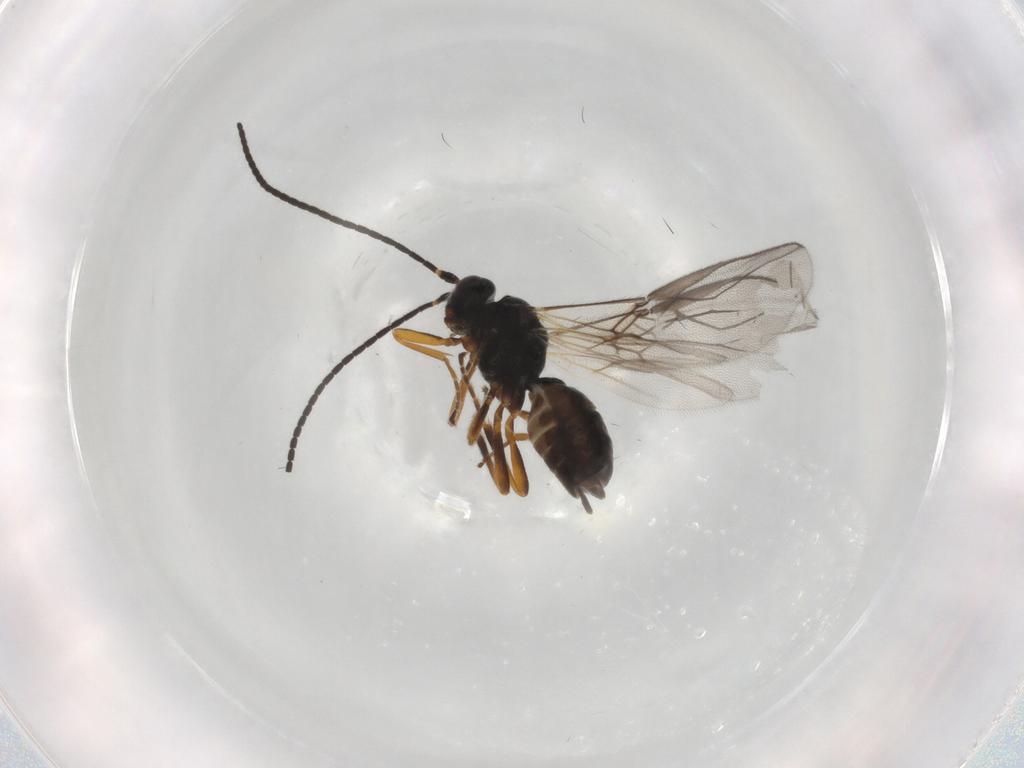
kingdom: Animalia
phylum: Arthropoda
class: Insecta
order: Hymenoptera
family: Braconidae
